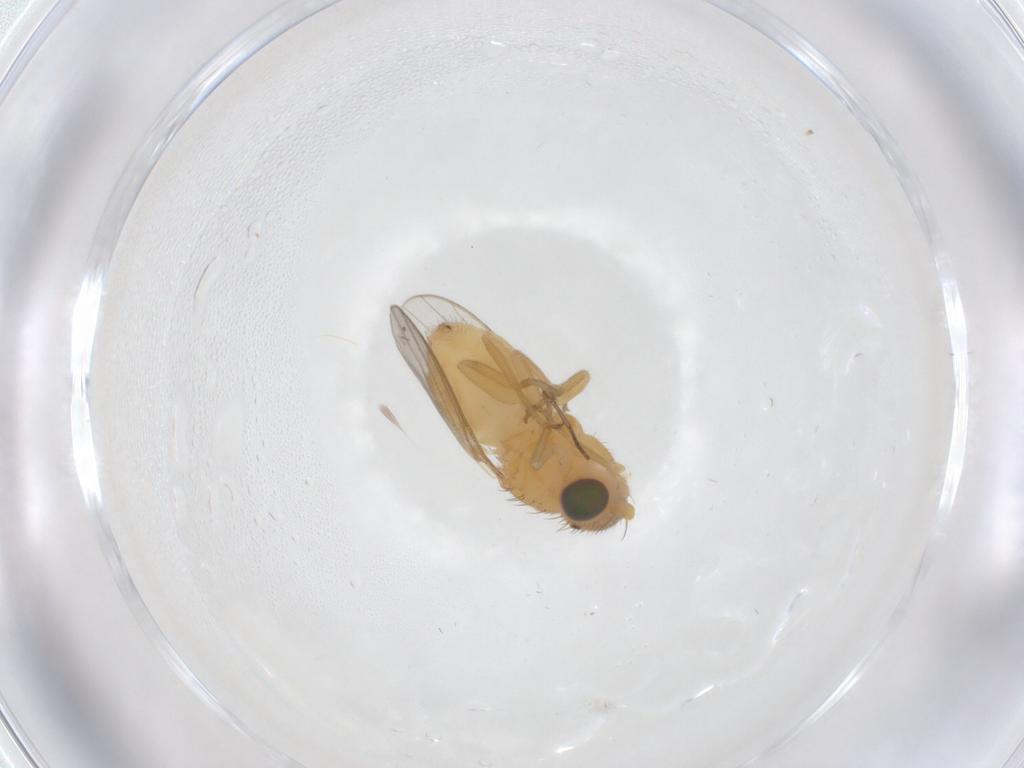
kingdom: Animalia
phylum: Arthropoda
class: Insecta
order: Diptera
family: Chloropidae
